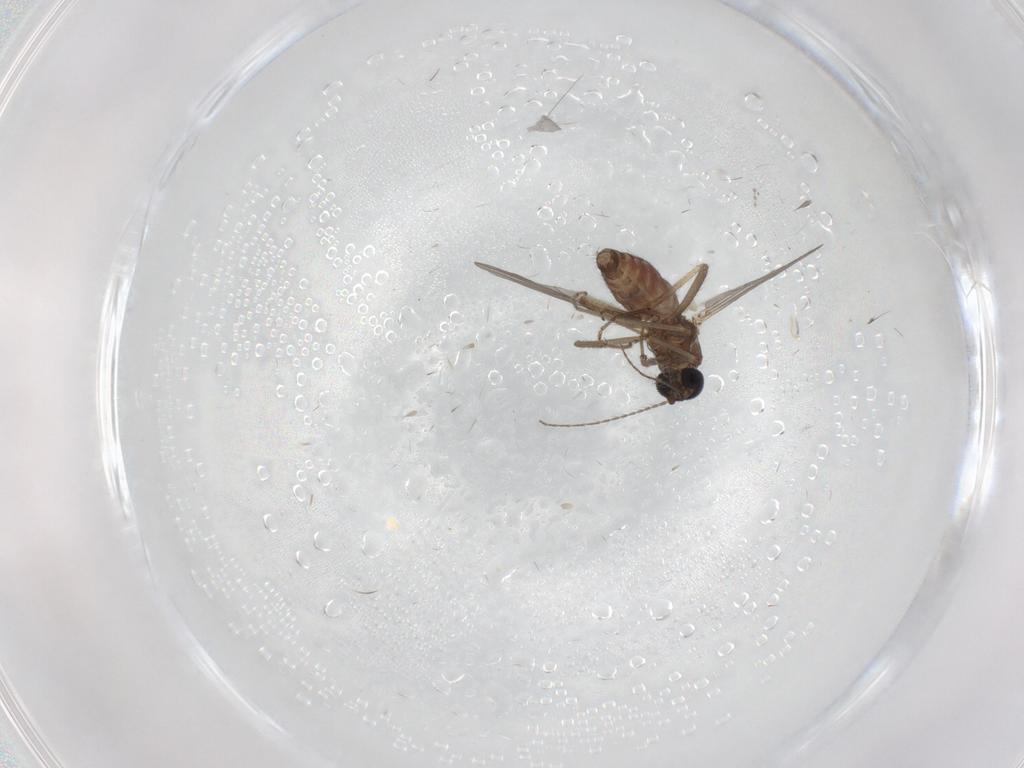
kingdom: Animalia
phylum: Arthropoda
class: Insecta
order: Diptera
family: Ceratopogonidae
